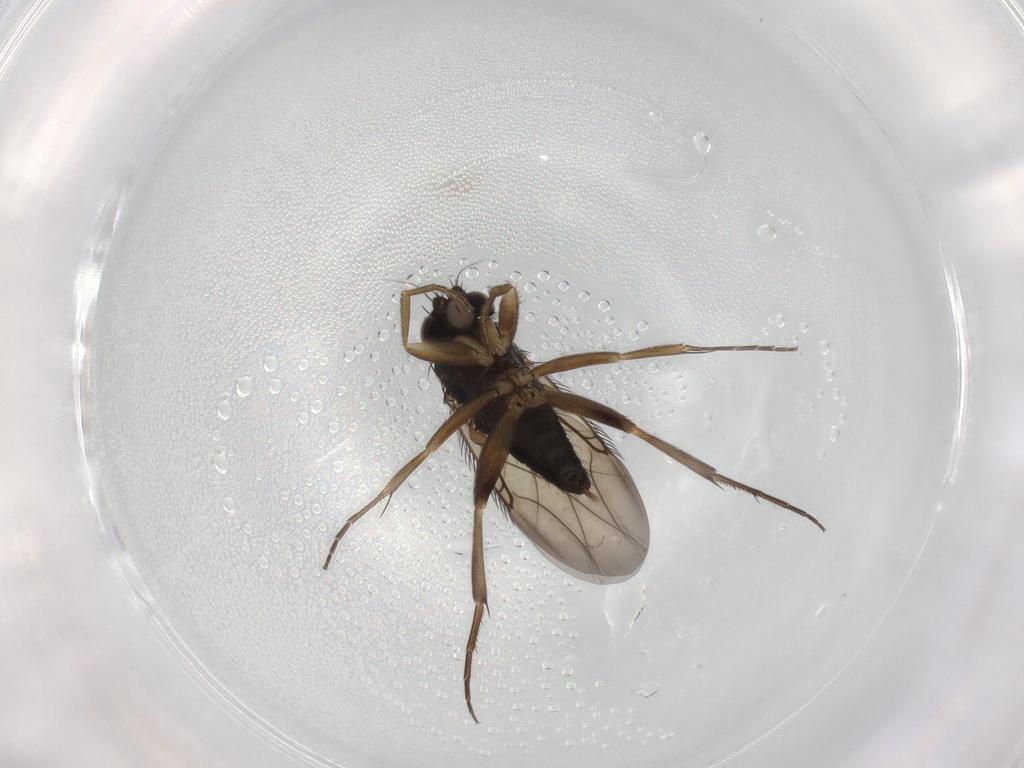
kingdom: Animalia
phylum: Arthropoda
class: Insecta
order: Diptera
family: Phoridae
